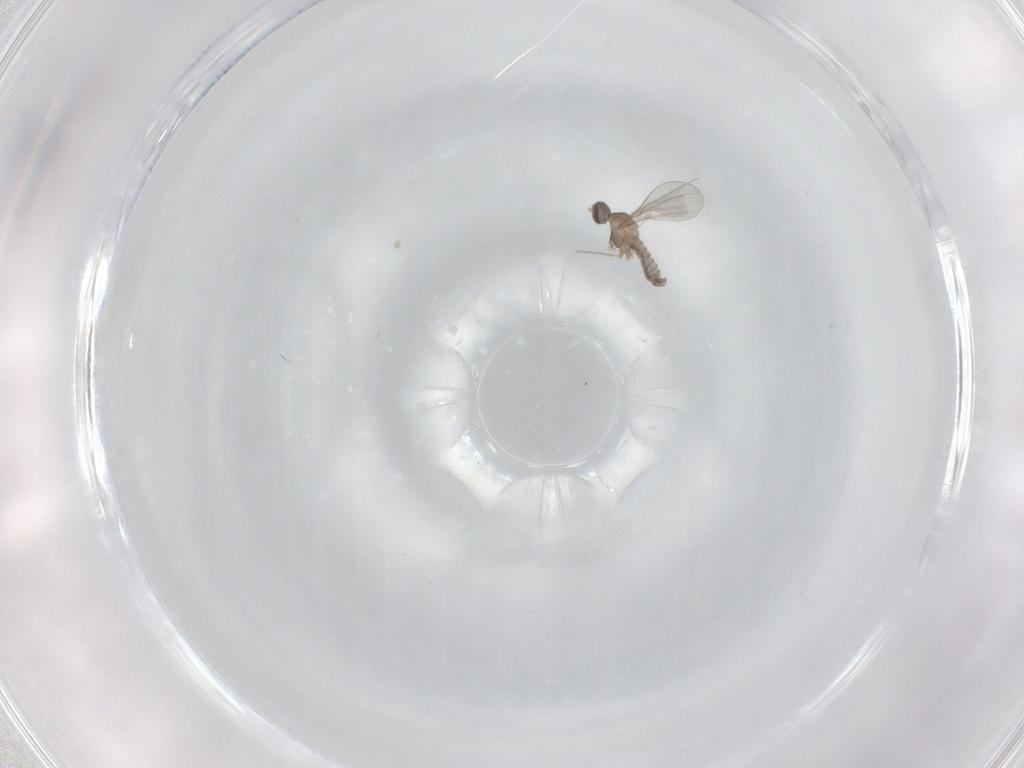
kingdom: Animalia
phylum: Arthropoda
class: Insecta
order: Diptera
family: Cecidomyiidae
